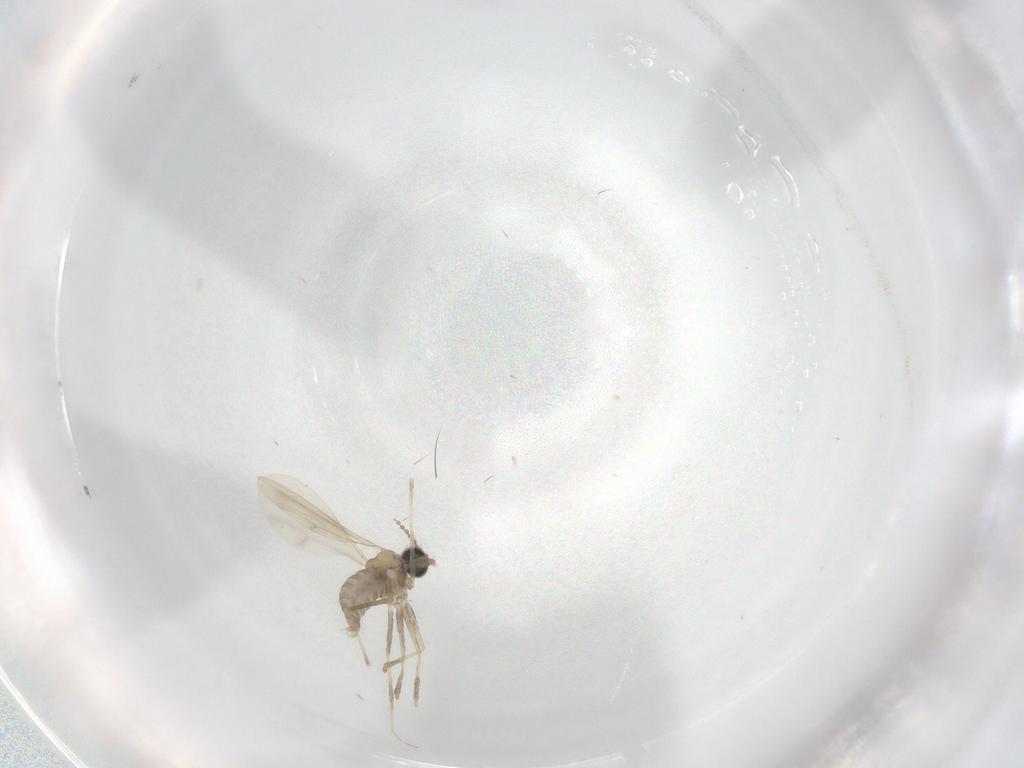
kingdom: Animalia
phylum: Arthropoda
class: Insecta
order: Diptera
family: Cecidomyiidae
